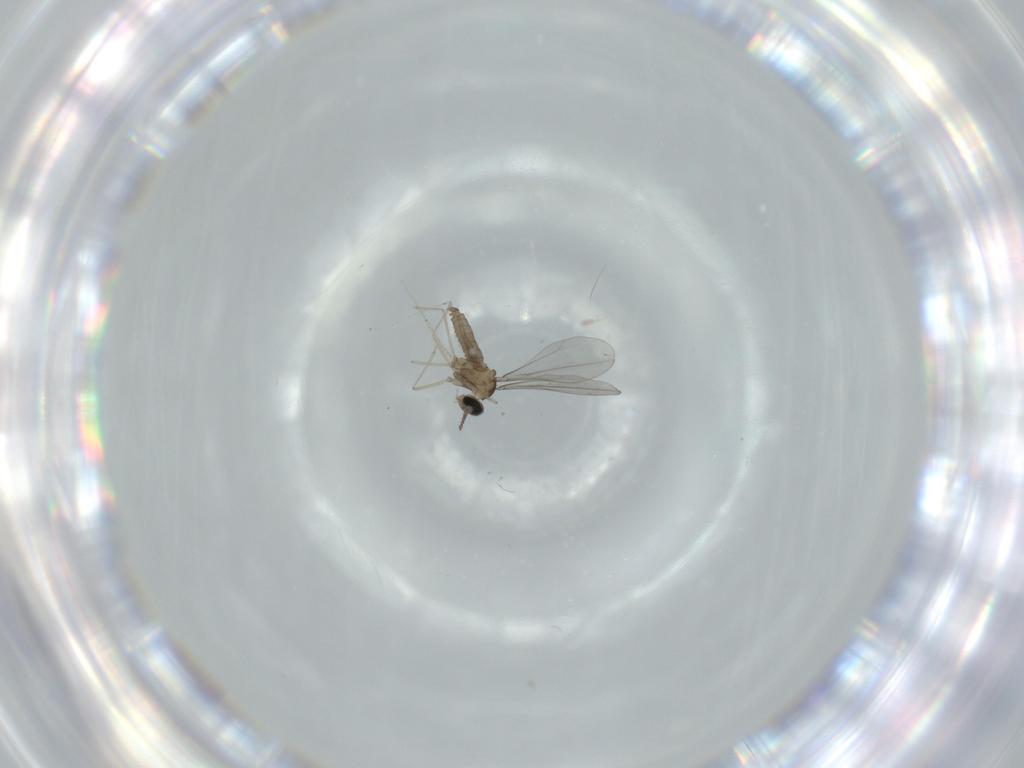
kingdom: Animalia
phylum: Arthropoda
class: Insecta
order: Diptera
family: Cecidomyiidae
